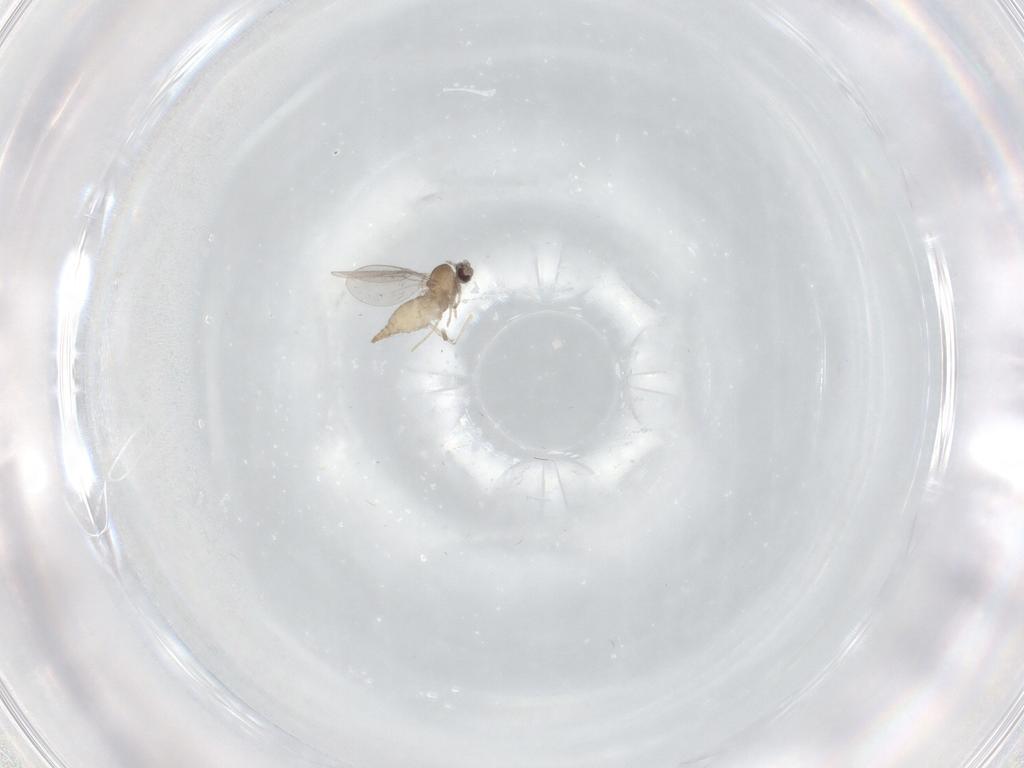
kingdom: Animalia
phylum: Arthropoda
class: Insecta
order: Diptera
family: Cecidomyiidae
